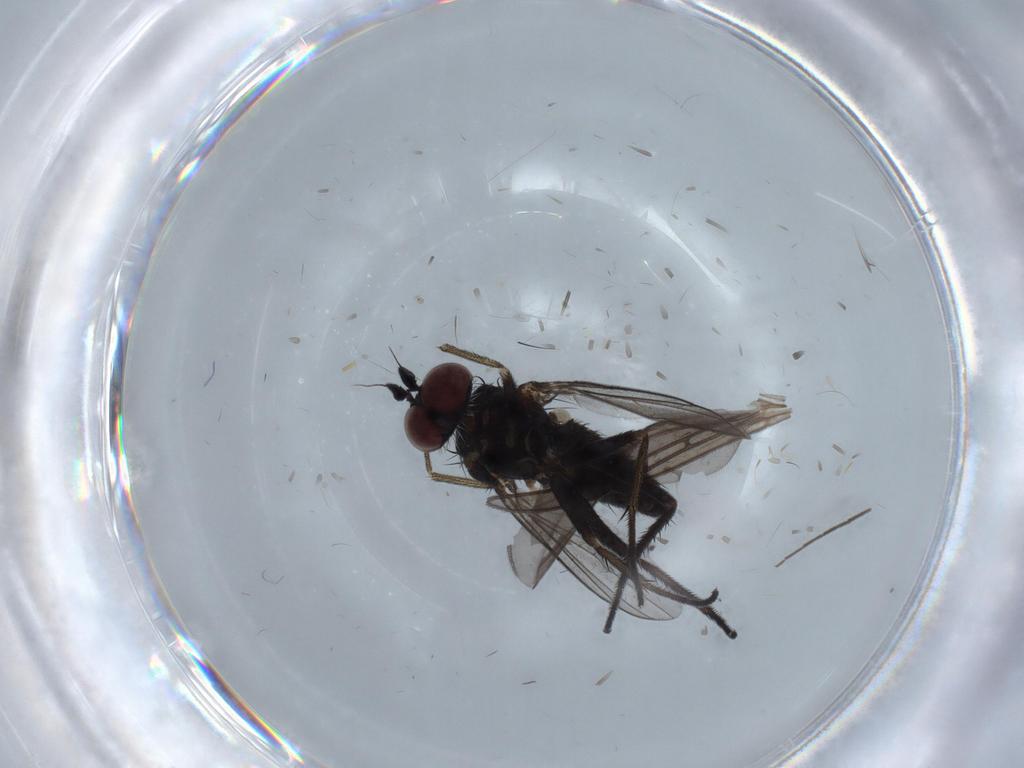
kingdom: Animalia
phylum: Arthropoda
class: Insecta
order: Diptera
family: Dolichopodidae
